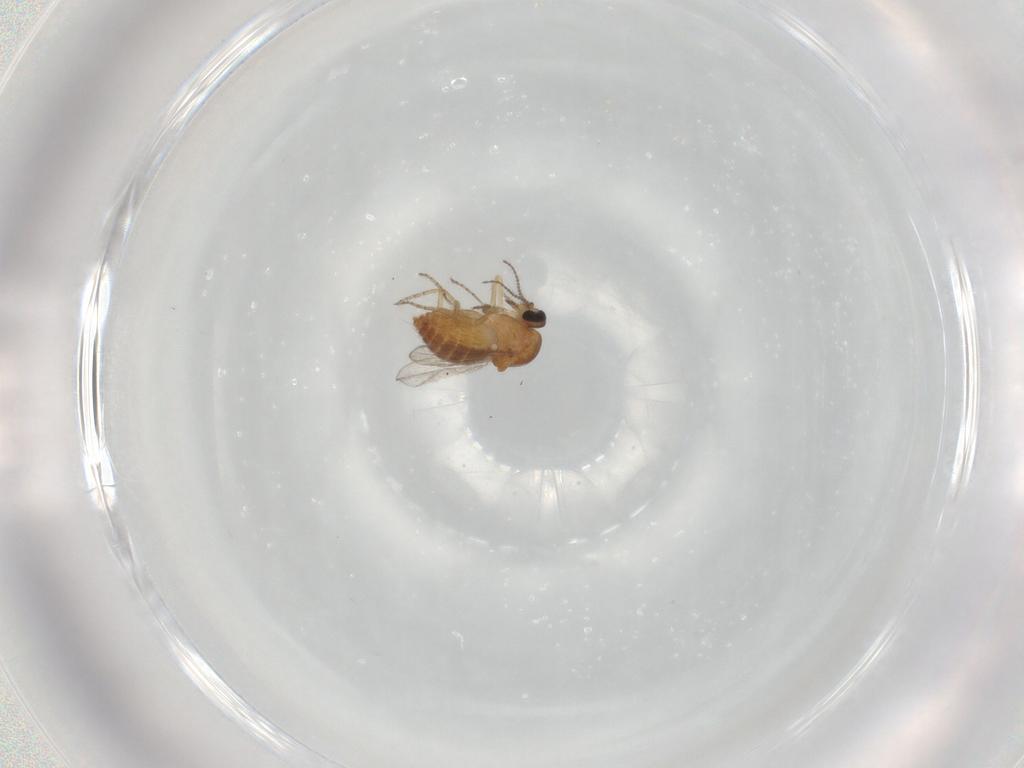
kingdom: Animalia
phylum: Arthropoda
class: Insecta
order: Diptera
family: Ceratopogonidae
